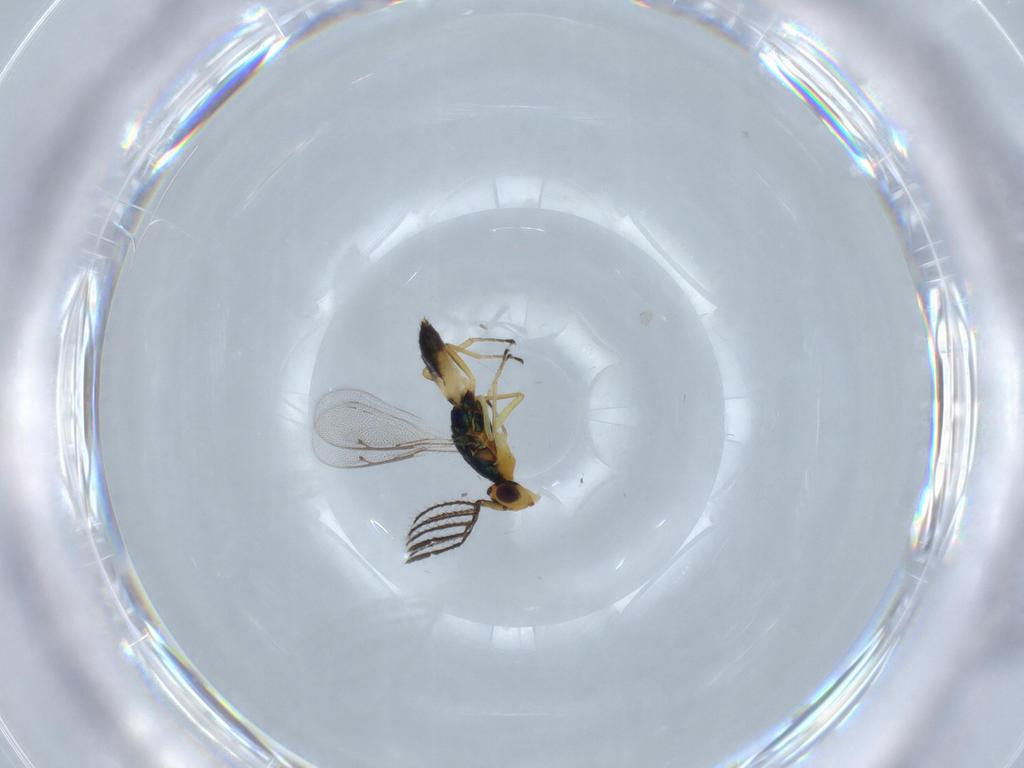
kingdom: Animalia
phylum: Arthropoda
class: Insecta
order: Hymenoptera
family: Eulophidae
